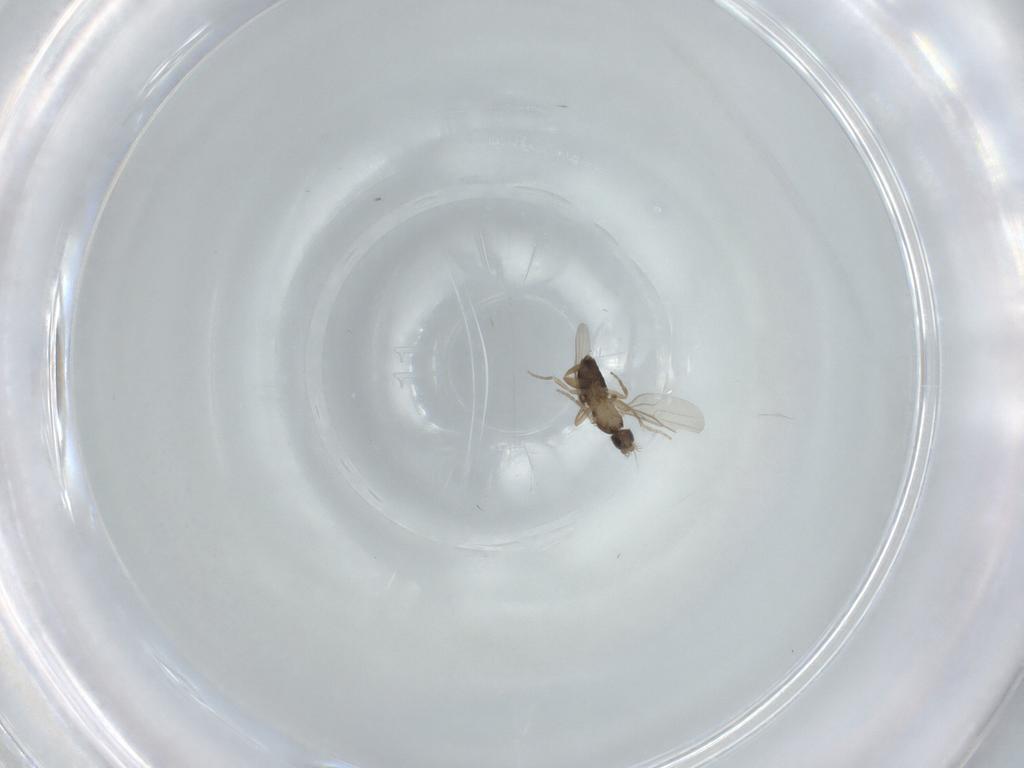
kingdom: Animalia
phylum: Arthropoda
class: Insecta
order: Diptera
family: Phoridae
